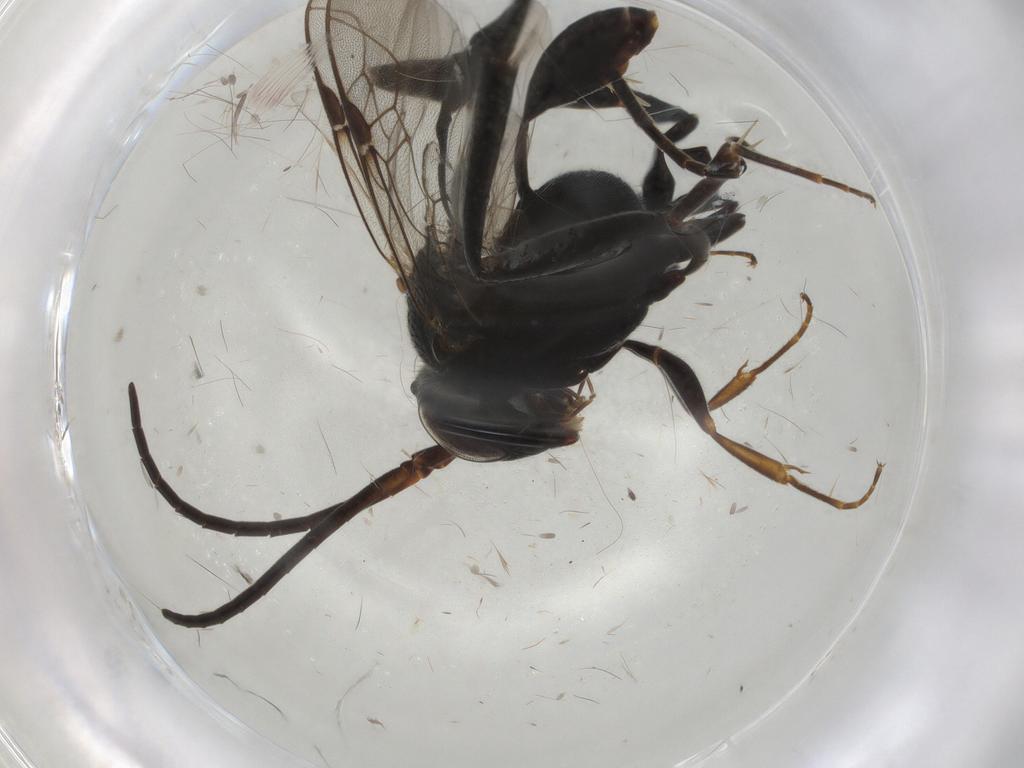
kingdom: Animalia
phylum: Arthropoda
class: Insecta
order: Hymenoptera
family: Evaniidae
